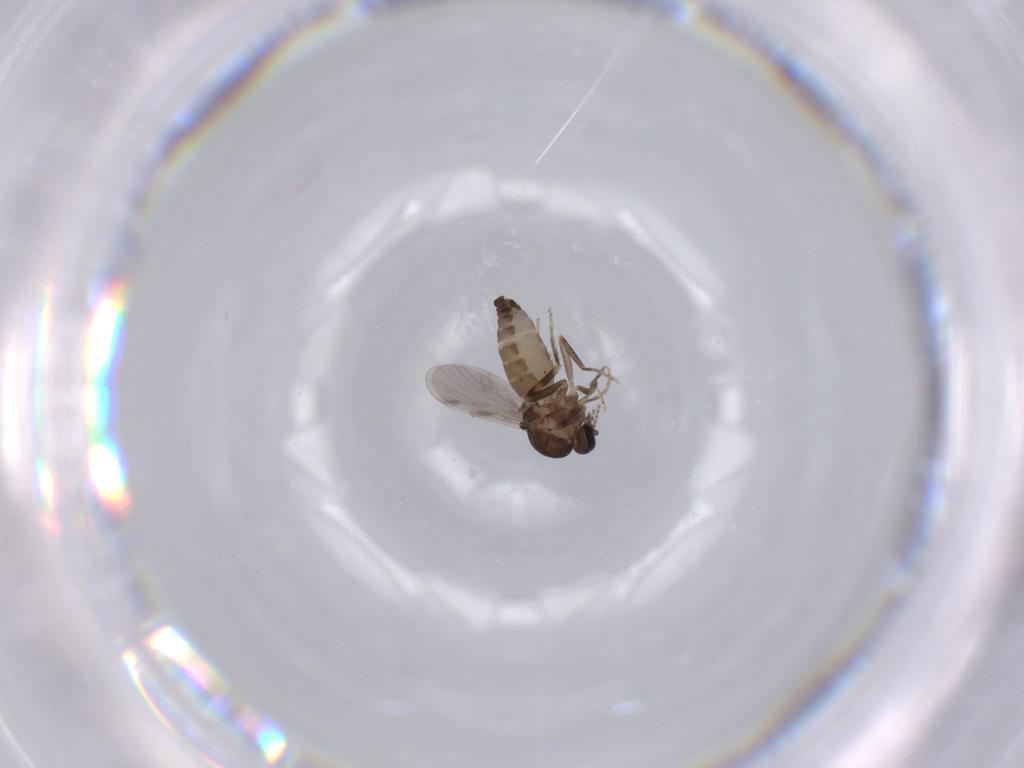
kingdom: Animalia
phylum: Arthropoda
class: Insecta
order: Diptera
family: Ceratopogonidae
